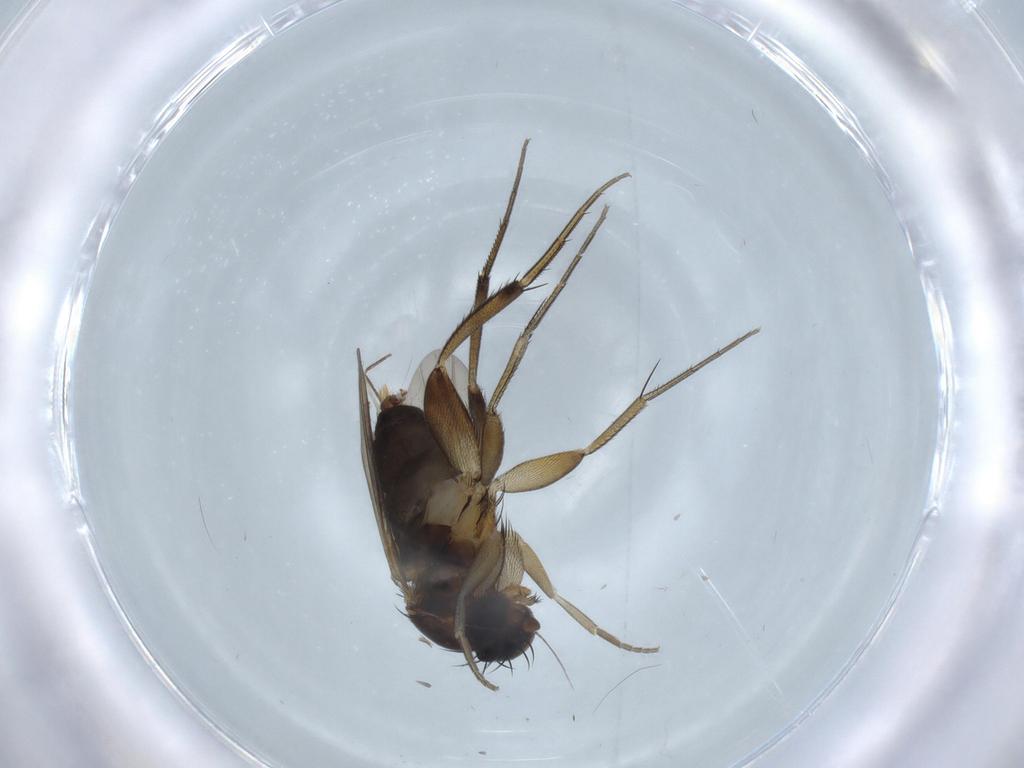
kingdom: Animalia
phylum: Arthropoda
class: Insecta
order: Diptera
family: Phoridae
